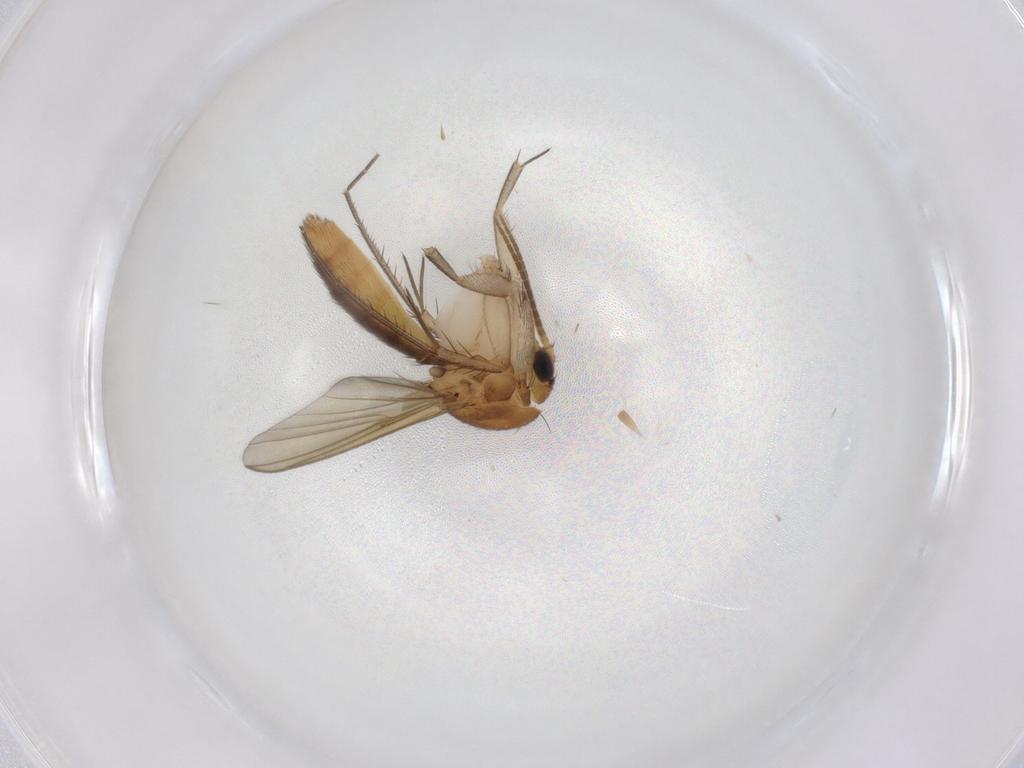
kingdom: Animalia
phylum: Arthropoda
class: Insecta
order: Diptera
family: Mycetophilidae
